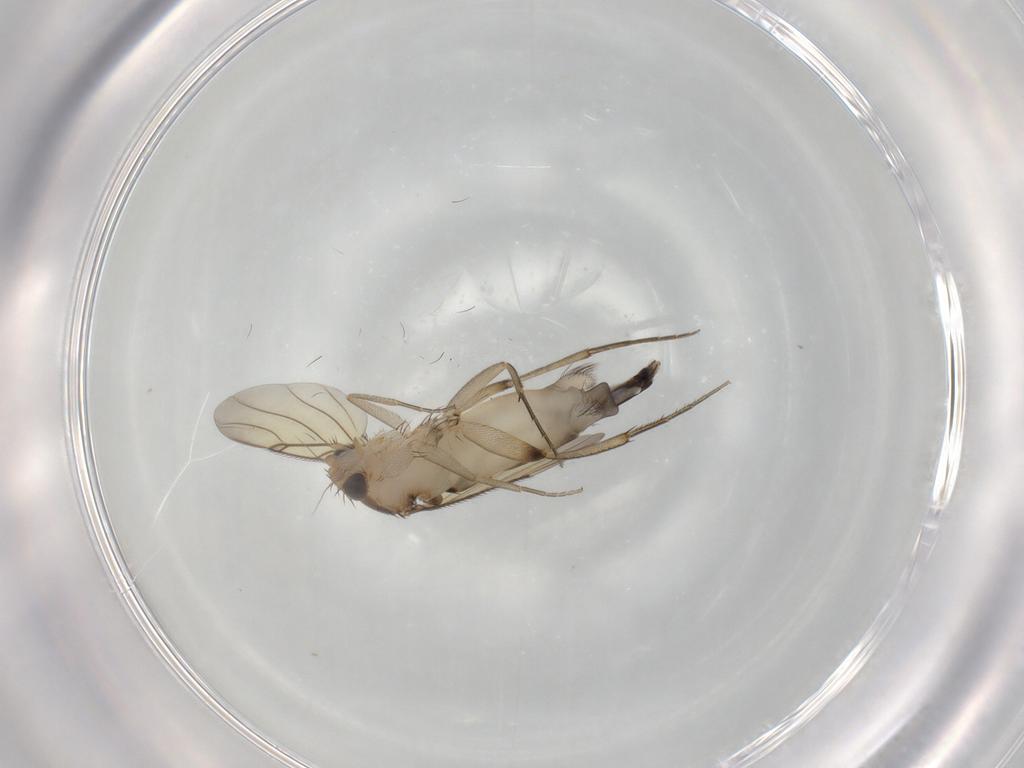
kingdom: Animalia
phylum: Arthropoda
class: Insecta
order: Diptera
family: Phoridae
